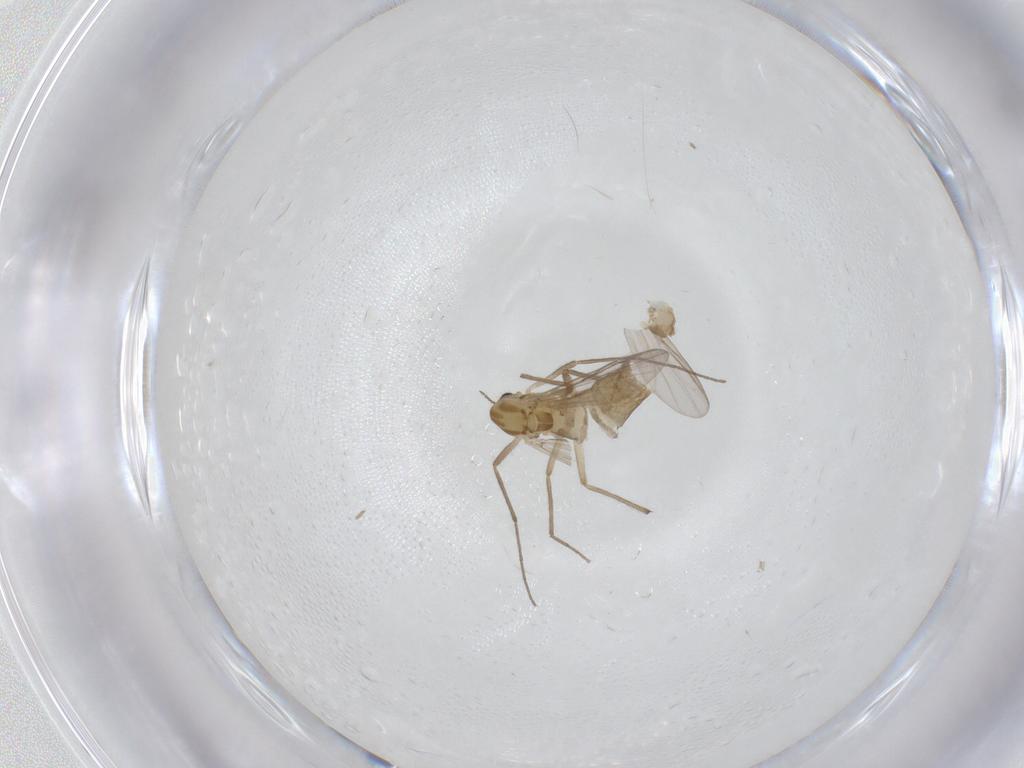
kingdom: Animalia
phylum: Arthropoda
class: Insecta
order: Diptera
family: Chironomidae
